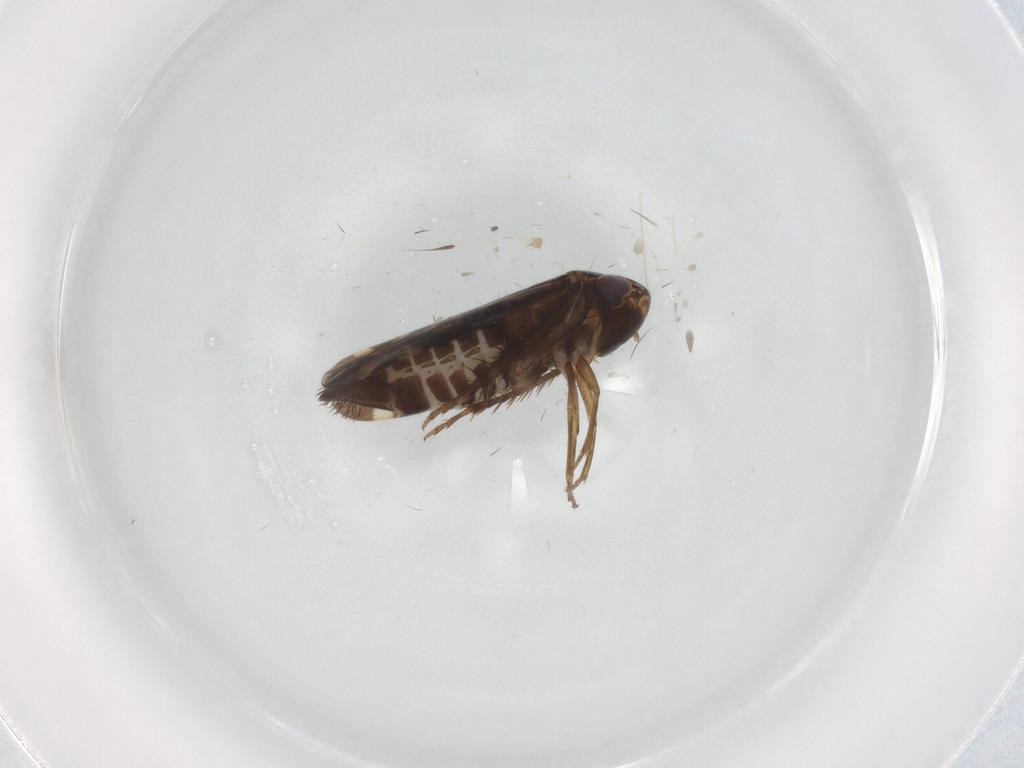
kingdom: Animalia
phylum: Arthropoda
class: Insecta
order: Hemiptera
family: Cicadellidae
